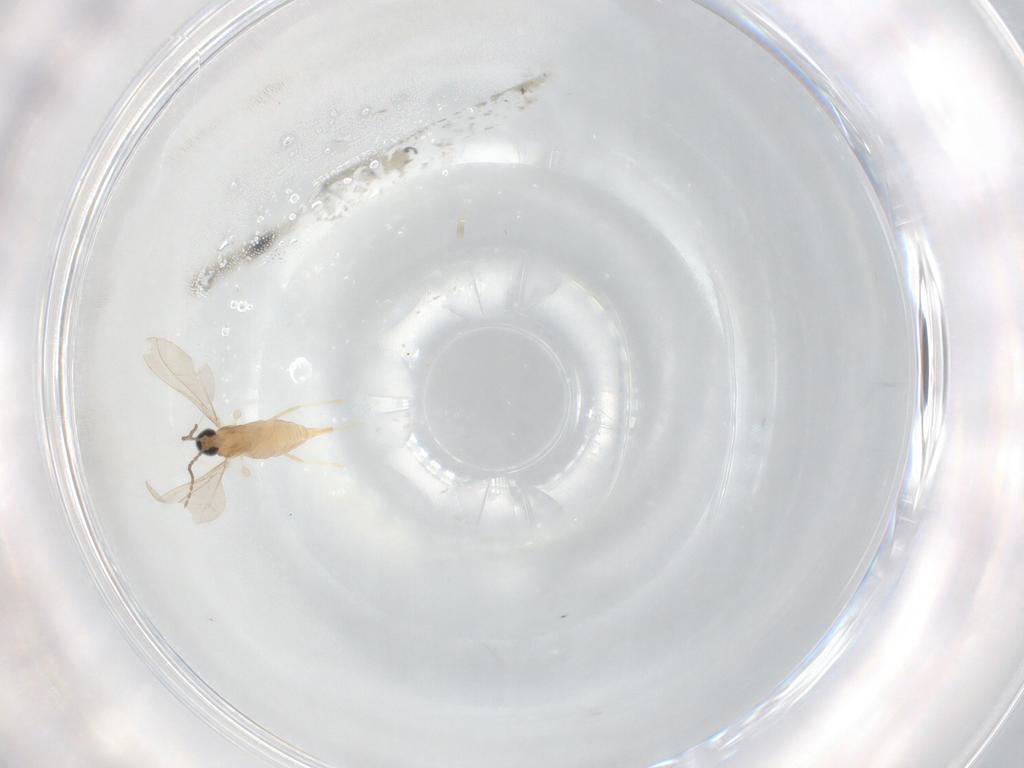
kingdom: Animalia
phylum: Arthropoda
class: Insecta
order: Diptera
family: Cecidomyiidae
